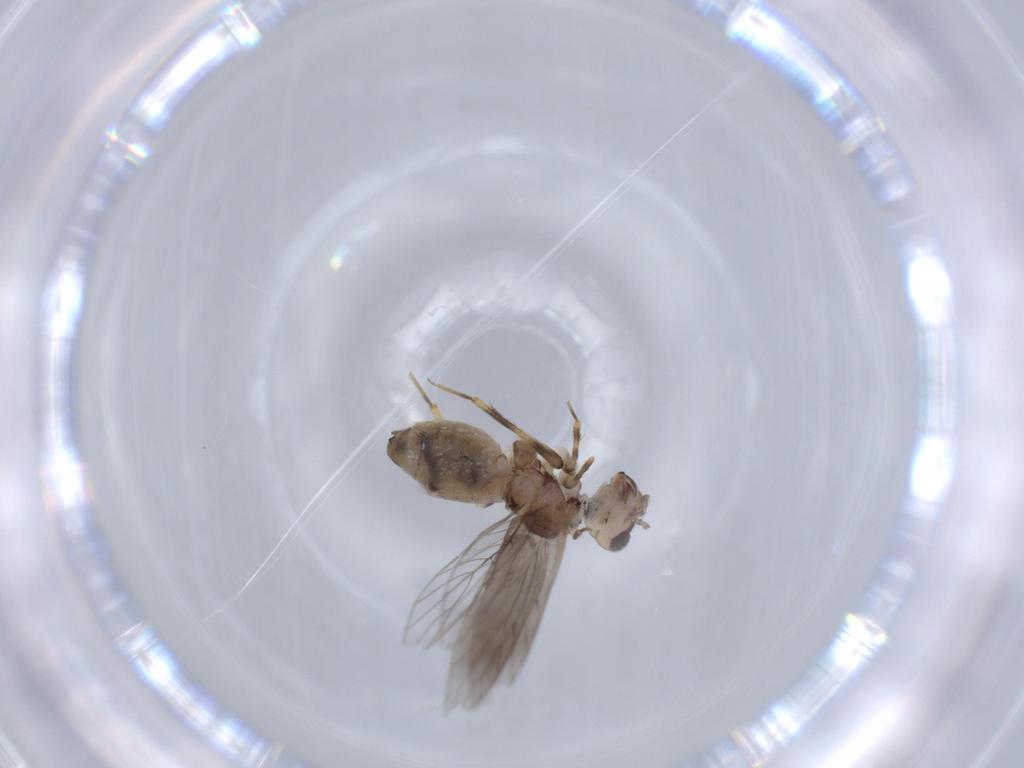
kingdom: Animalia
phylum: Arthropoda
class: Insecta
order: Psocodea
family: Lepidopsocidae
